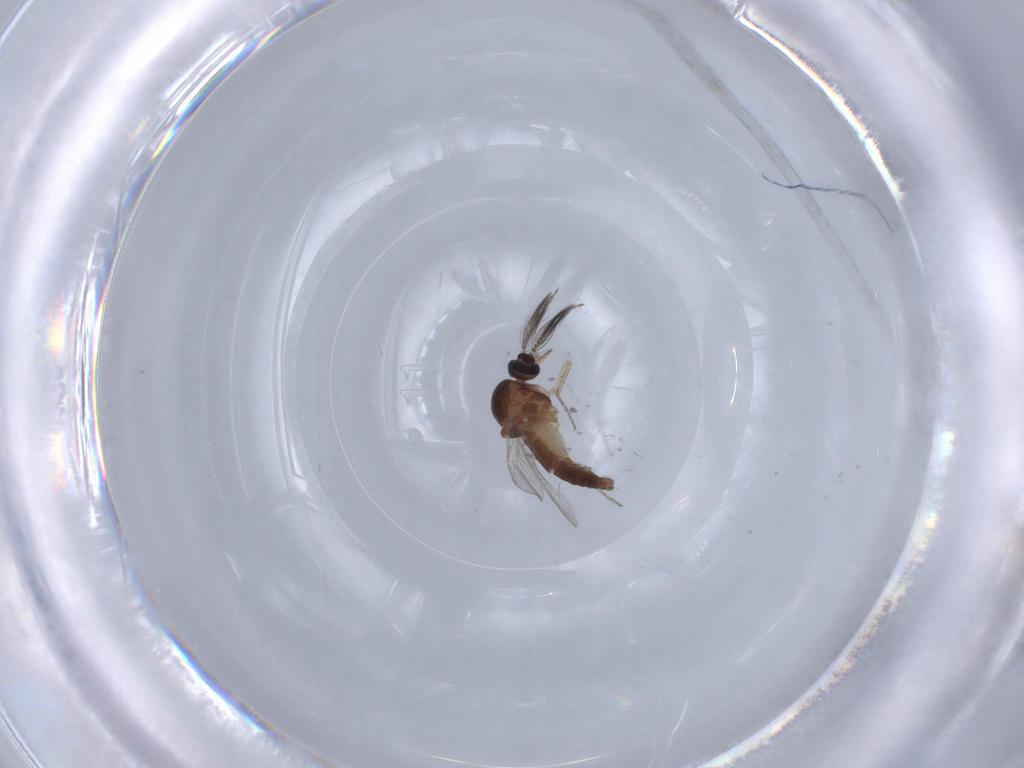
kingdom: Animalia
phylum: Arthropoda
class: Insecta
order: Diptera
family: Ceratopogonidae
